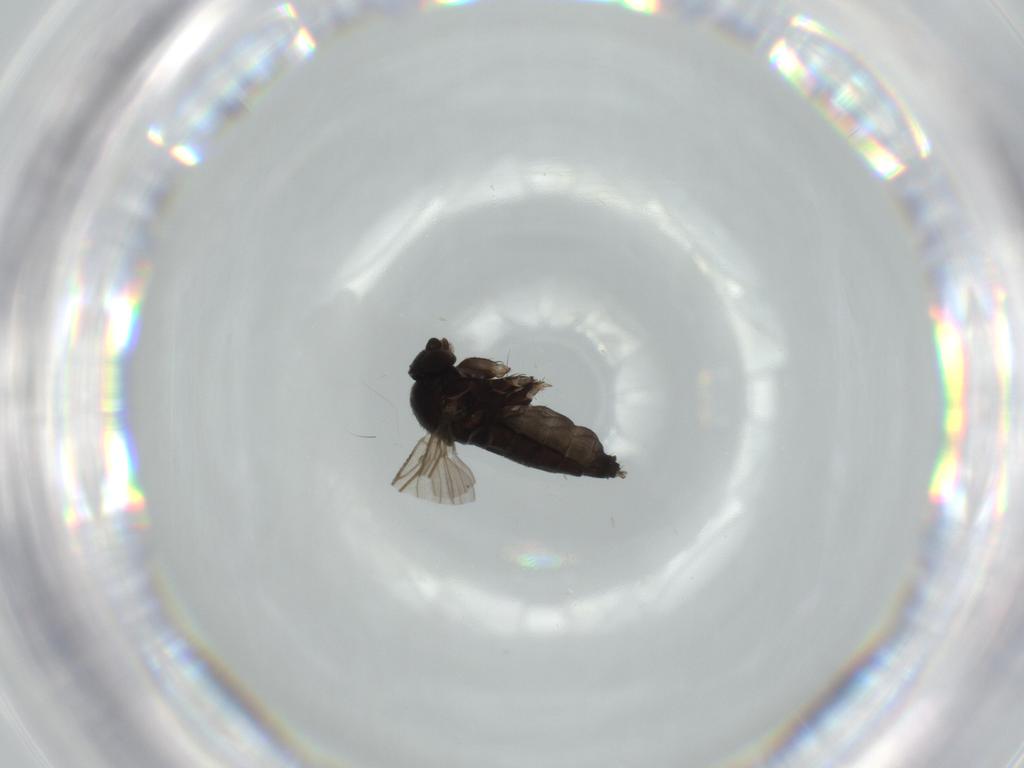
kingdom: Animalia
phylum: Arthropoda
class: Insecta
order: Diptera
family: Phoridae
